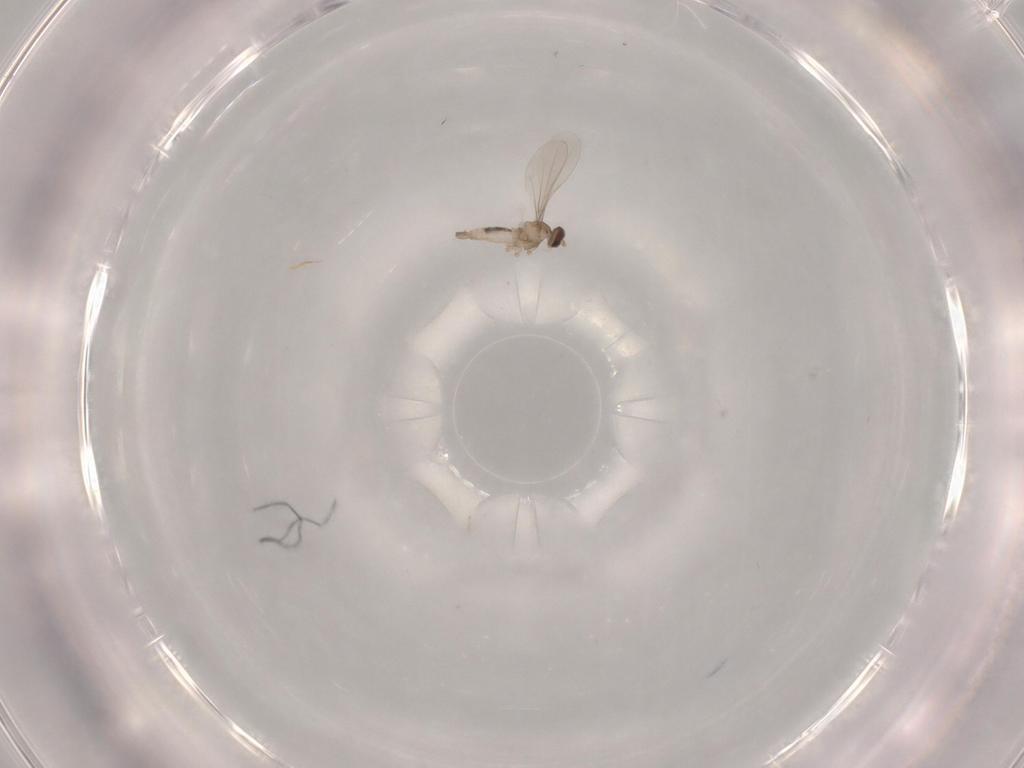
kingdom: Animalia
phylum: Arthropoda
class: Insecta
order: Diptera
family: Cecidomyiidae
